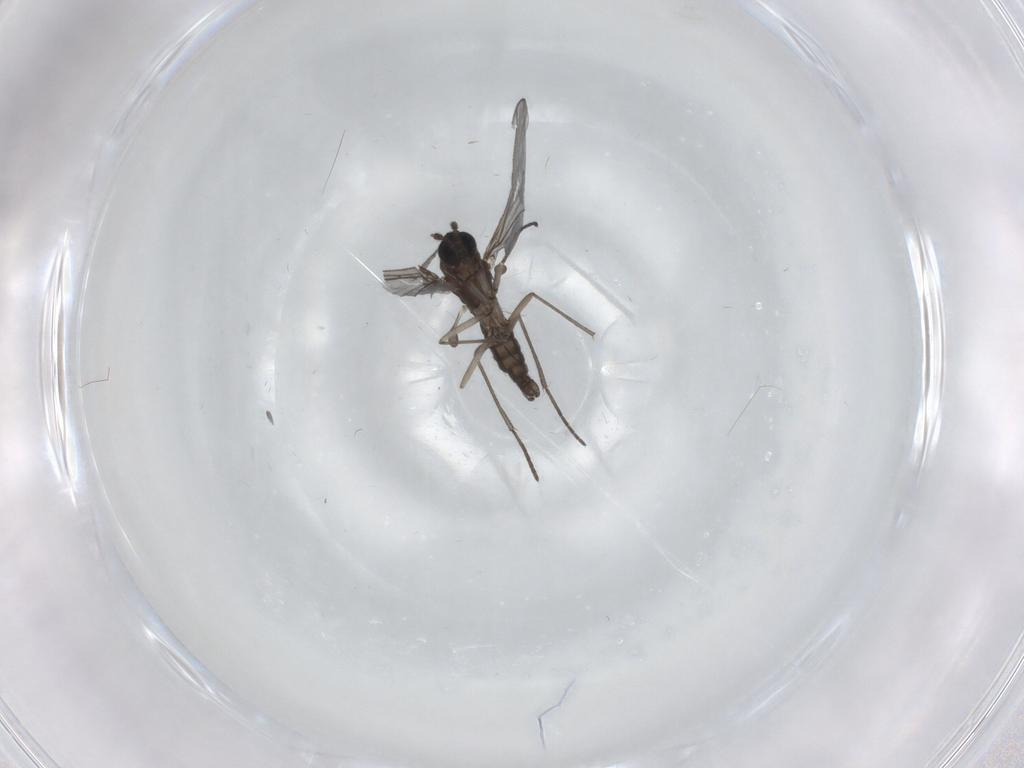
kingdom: Animalia
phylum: Arthropoda
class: Insecta
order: Diptera
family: Sciaridae
